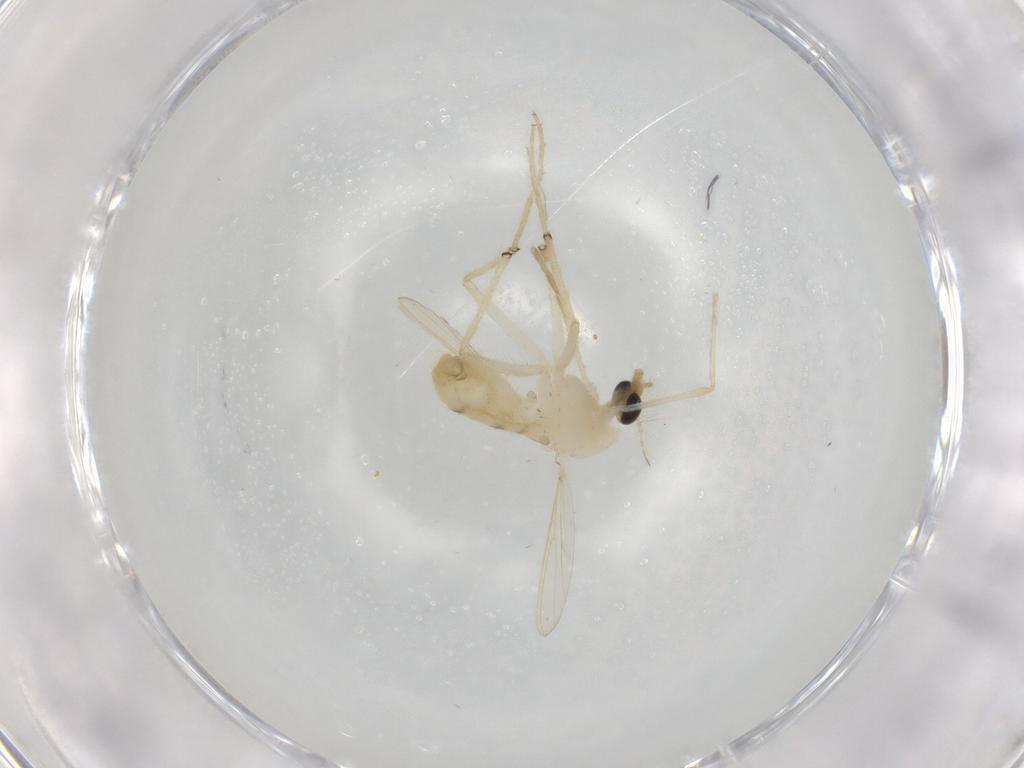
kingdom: Animalia
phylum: Arthropoda
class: Insecta
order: Diptera
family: Chironomidae
